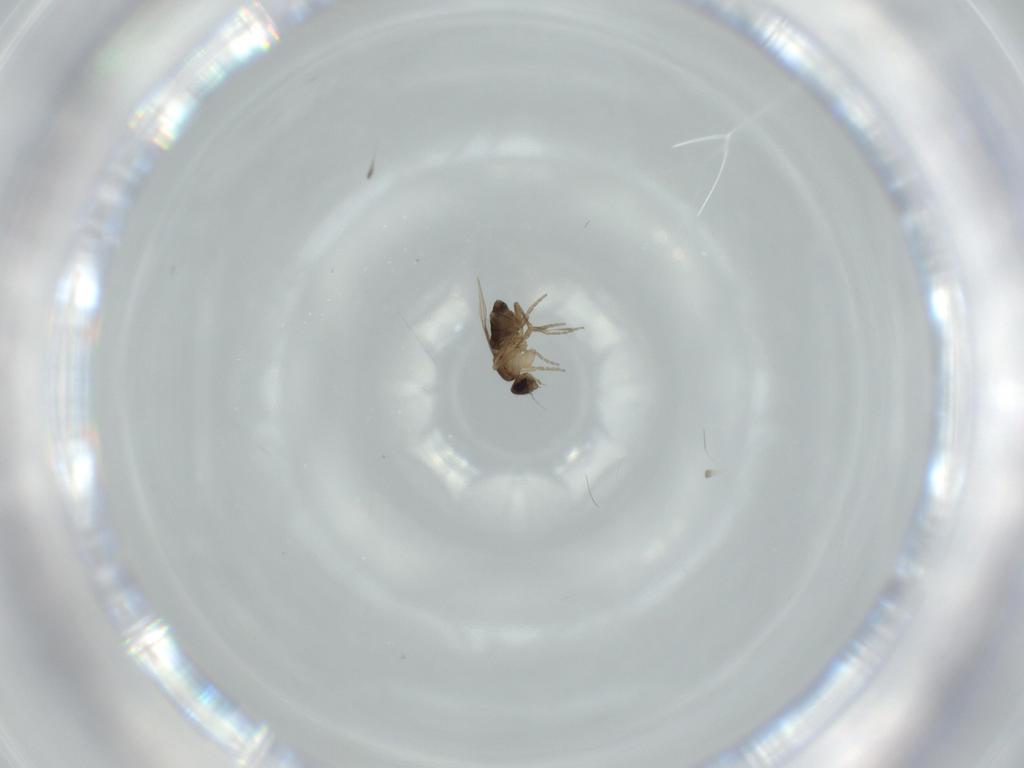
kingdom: Animalia
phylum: Arthropoda
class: Insecta
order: Diptera
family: Phoridae
